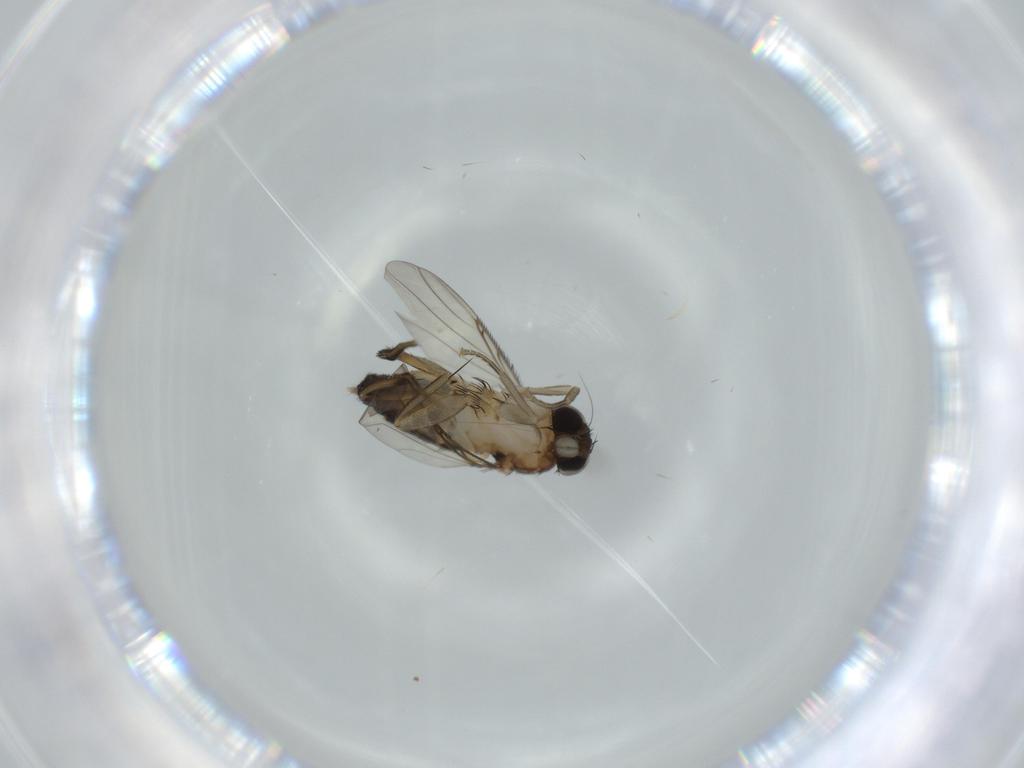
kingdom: Animalia
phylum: Arthropoda
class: Insecta
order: Diptera
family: Phoridae
